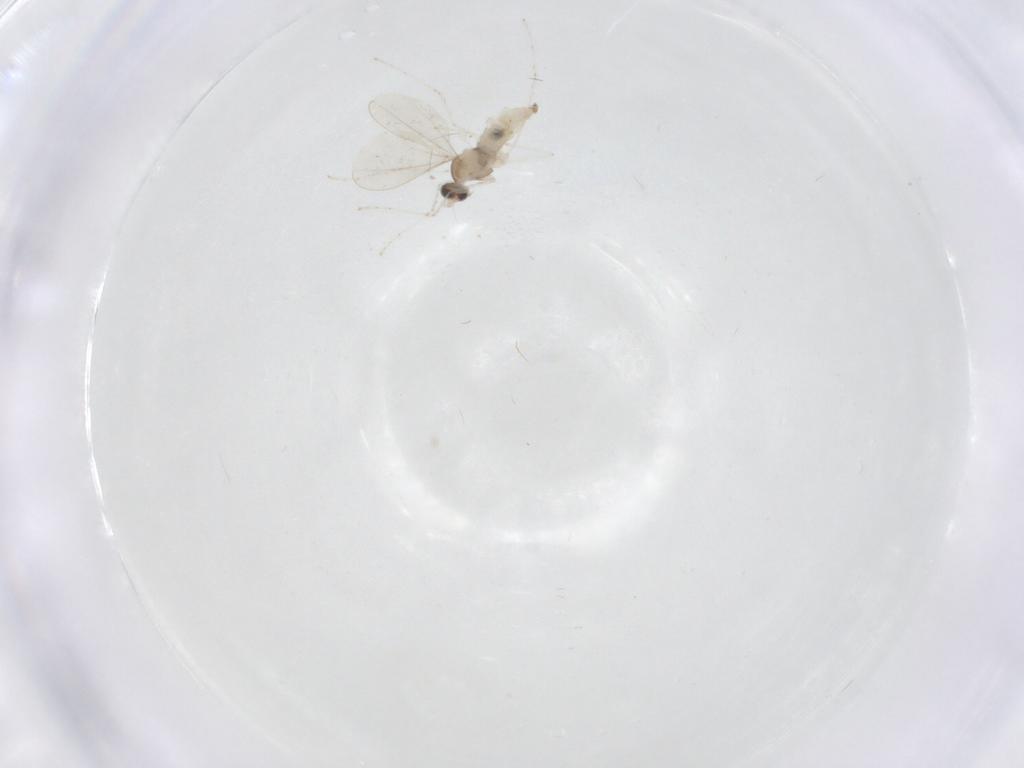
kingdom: Animalia
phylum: Arthropoda
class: Insecta
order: Diptera
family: Cecidomyiidae
